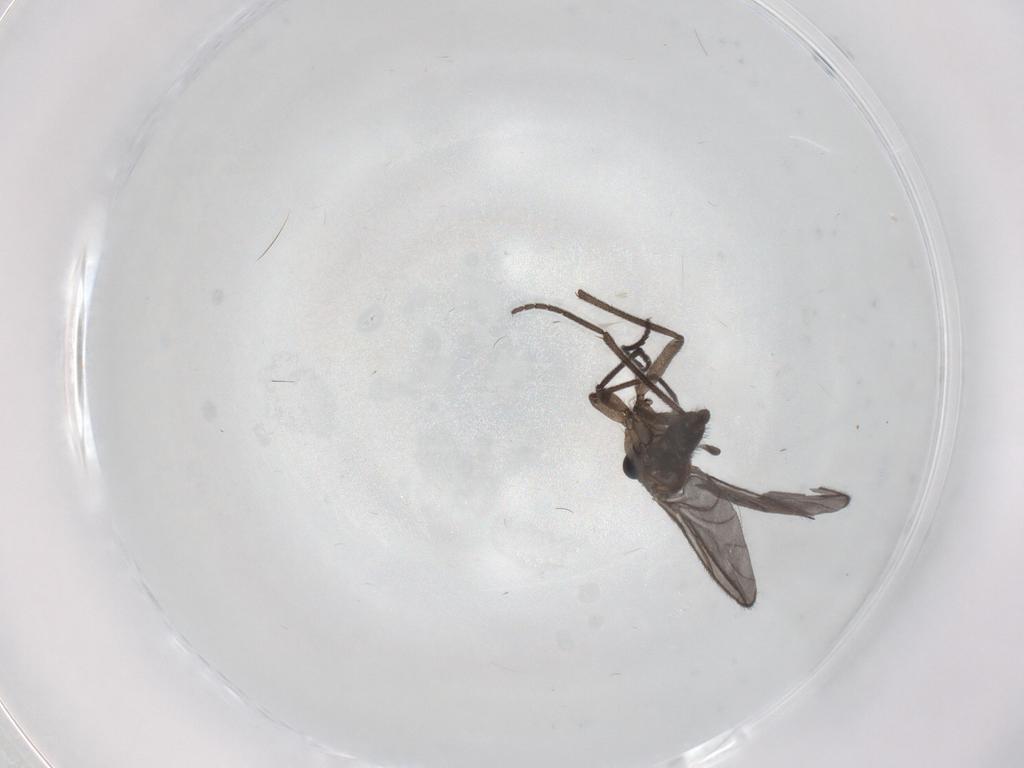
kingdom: Animalia
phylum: Arthropoda
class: Insecta
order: Diptera
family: Sciaridae
